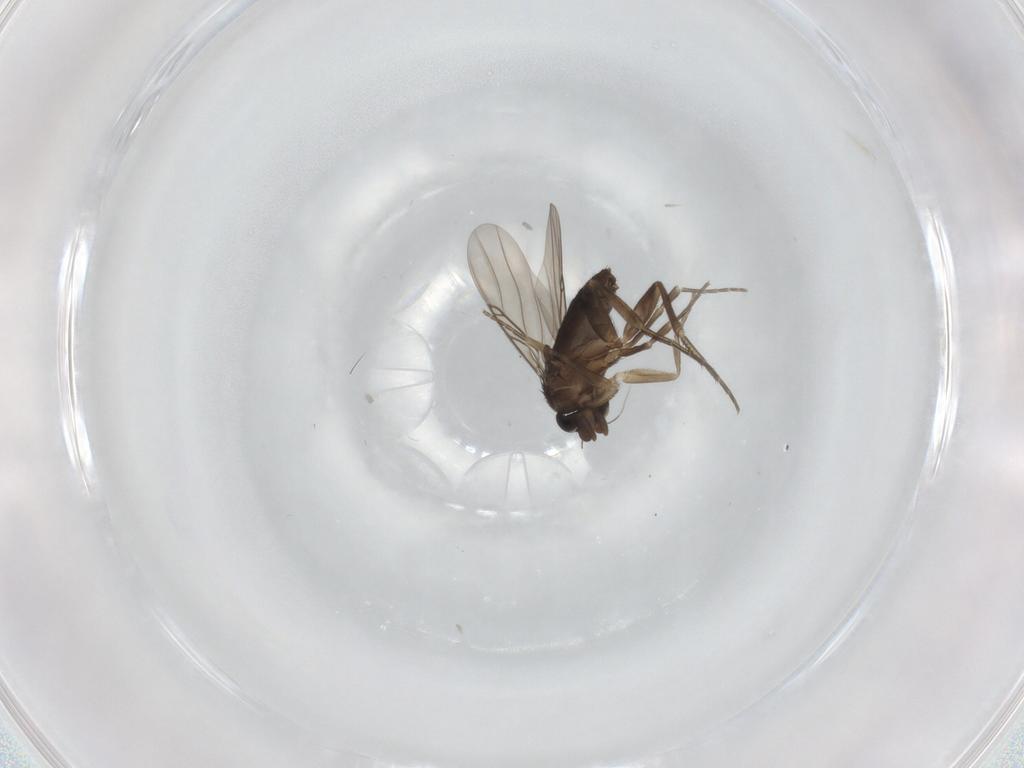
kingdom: Animalia
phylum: Arthropoda
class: Insecta
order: Diptera
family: Phoridae
